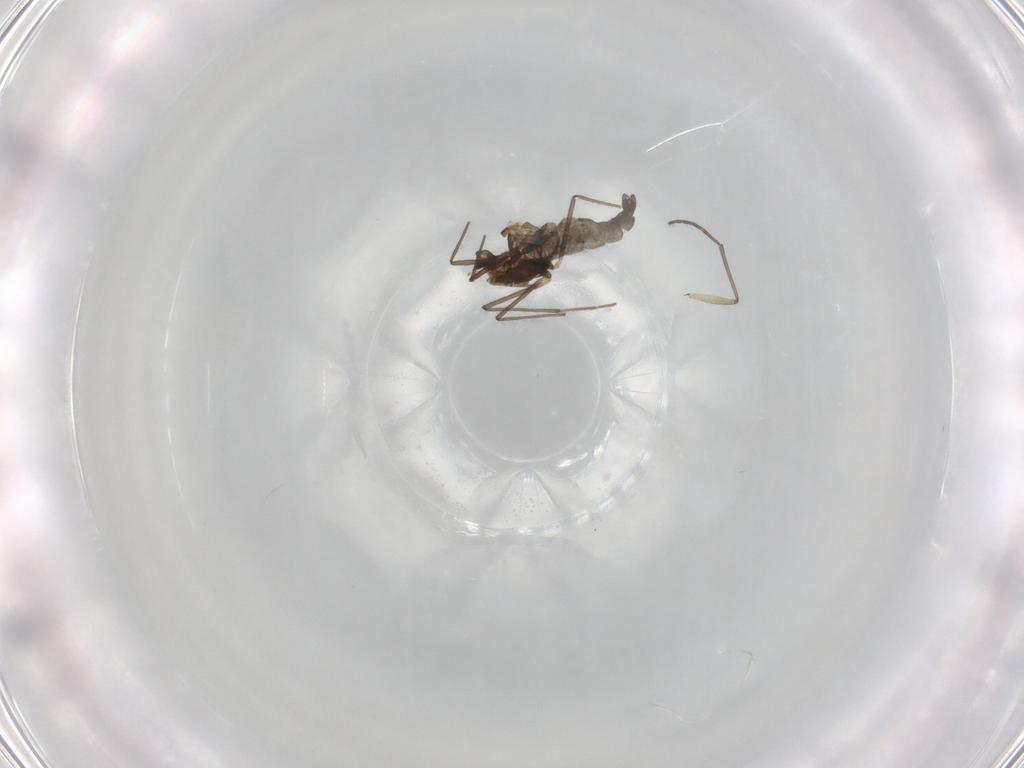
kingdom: Animalia
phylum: Arthropoda
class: Insecta
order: Diptera
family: Chironomidae
